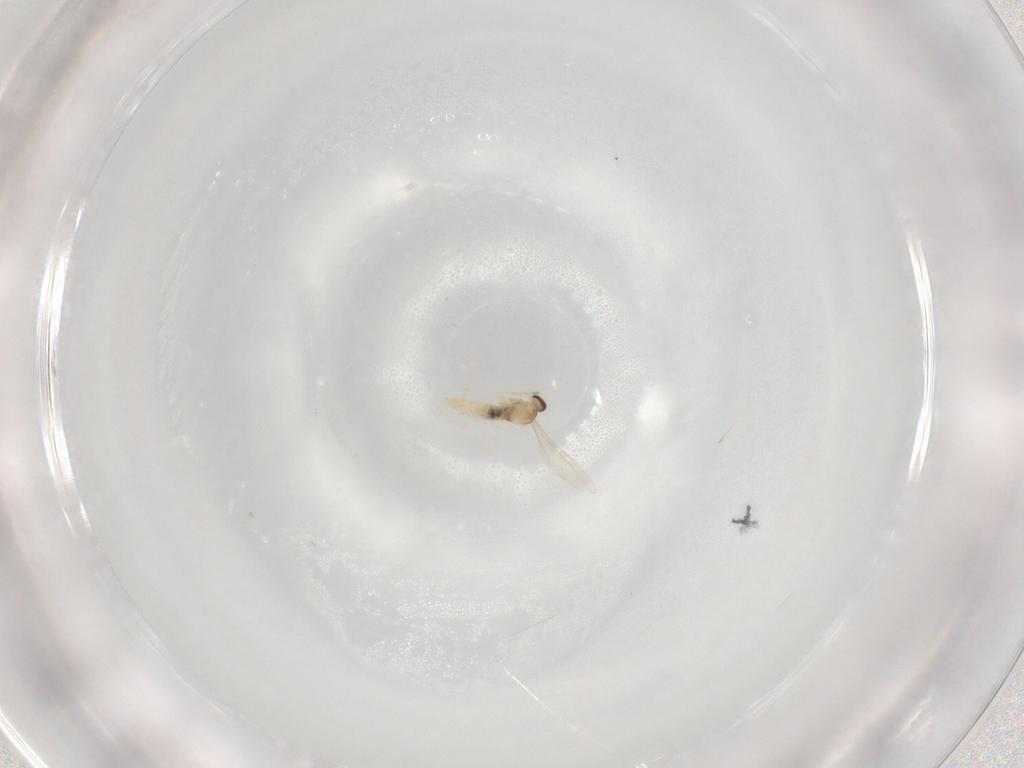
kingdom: Animalia
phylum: Arthropoda
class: Insecta
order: Diptera
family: Cecidomyiidae
